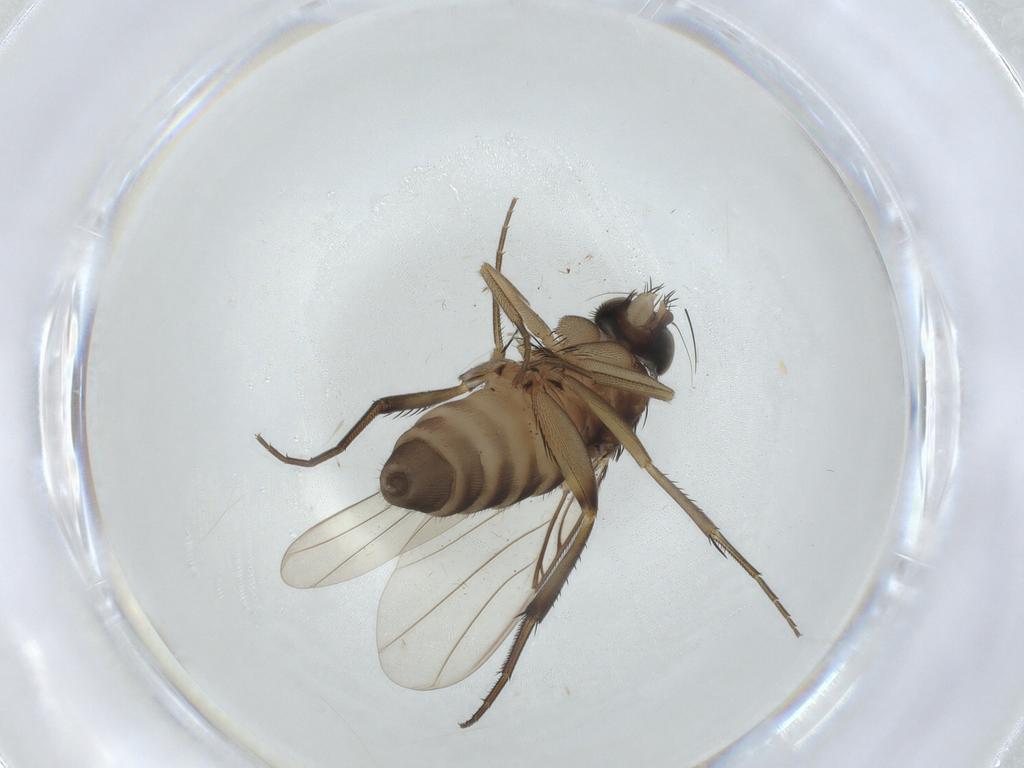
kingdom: Animalia
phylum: Arthropoda
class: Insecta
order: Diptera
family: Phoridae
